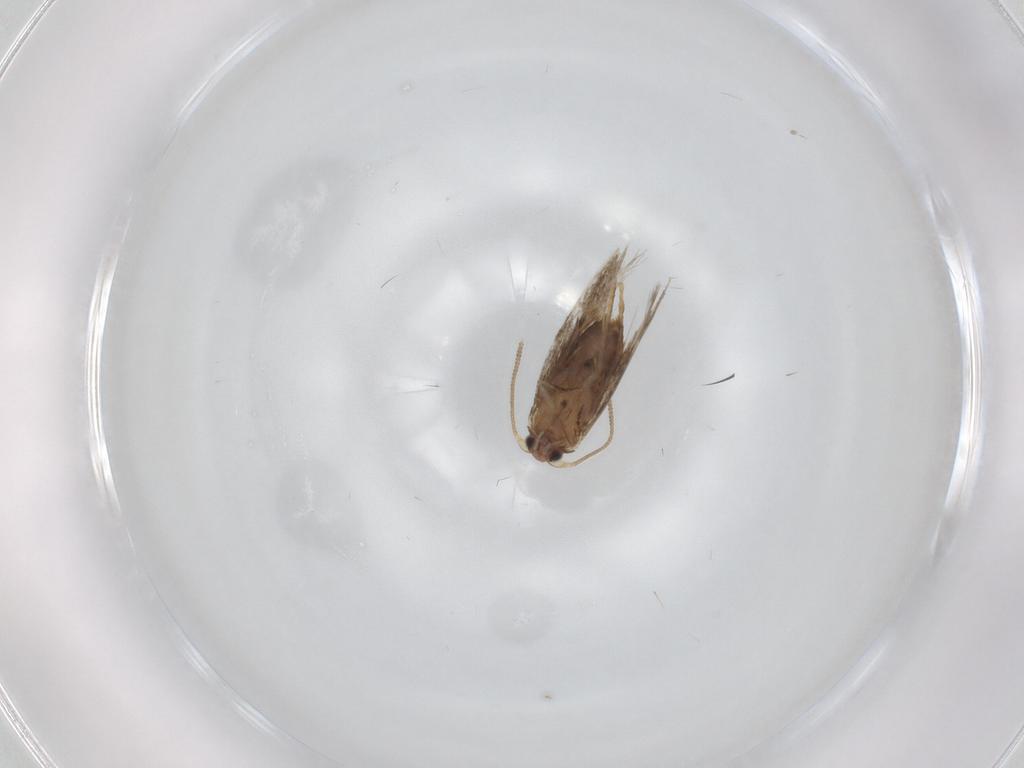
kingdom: Animalia
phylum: Arthropoda
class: Insecta
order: Lepidoptera
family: Nepticulidae
